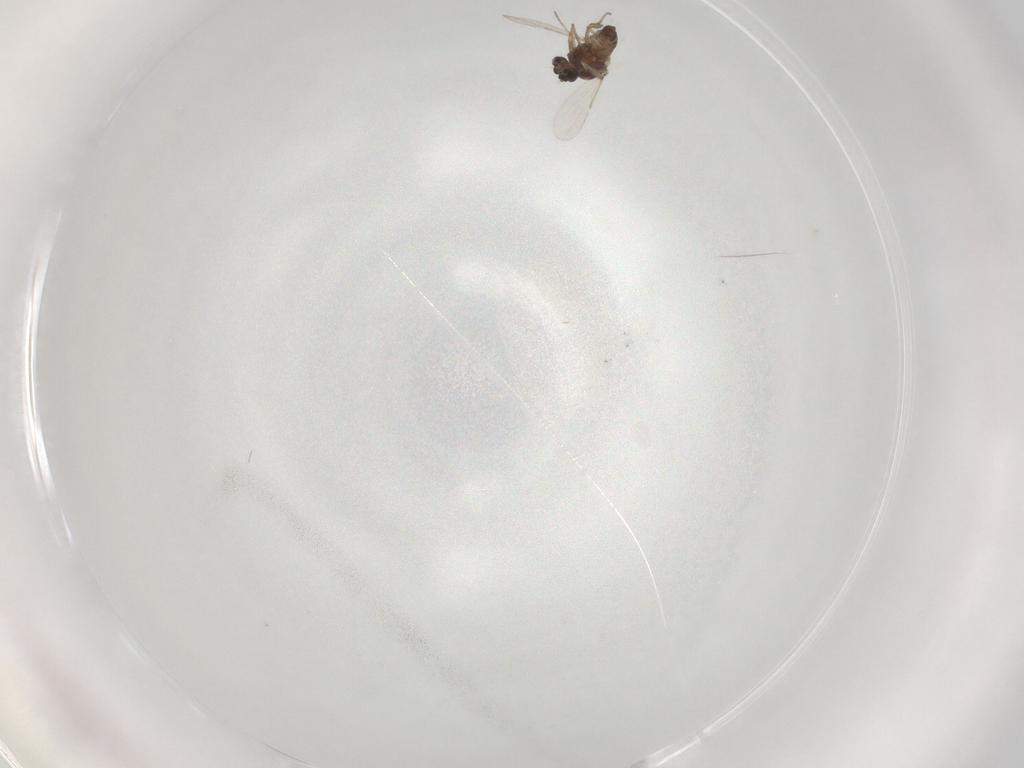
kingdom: Animalia
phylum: Arthropoda
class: Insecta
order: Diptera
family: Ceratopogonidae
